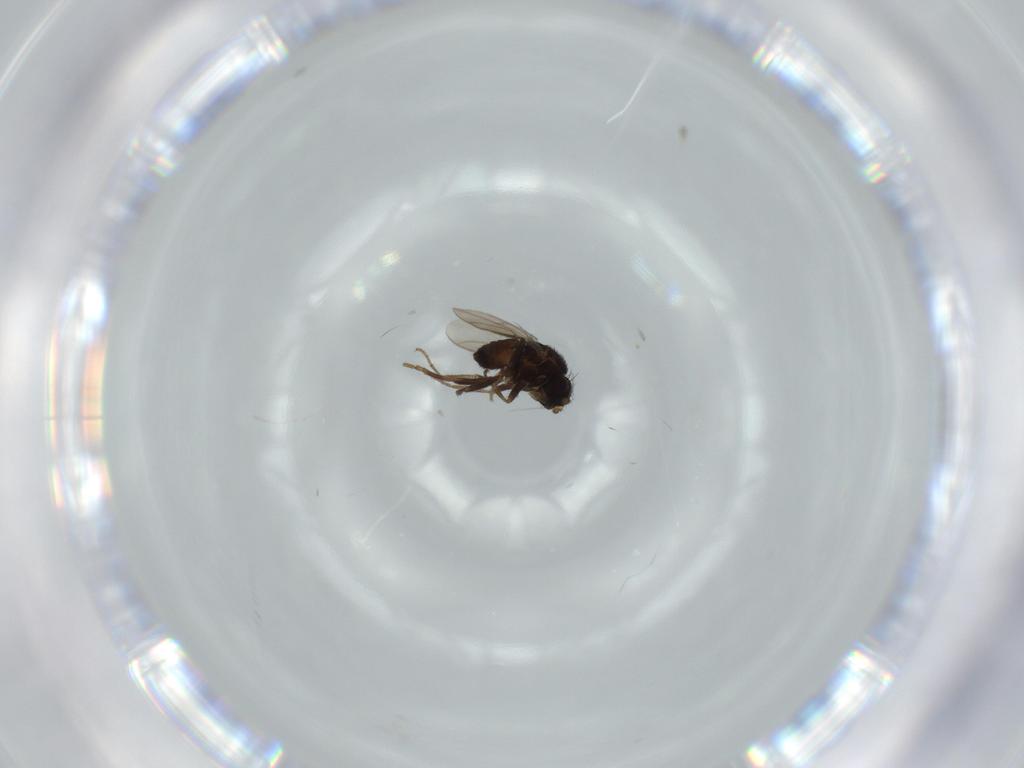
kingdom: Animalia
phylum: Arthropoda
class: Insecta
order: Diptera
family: Sphaeroceridae
